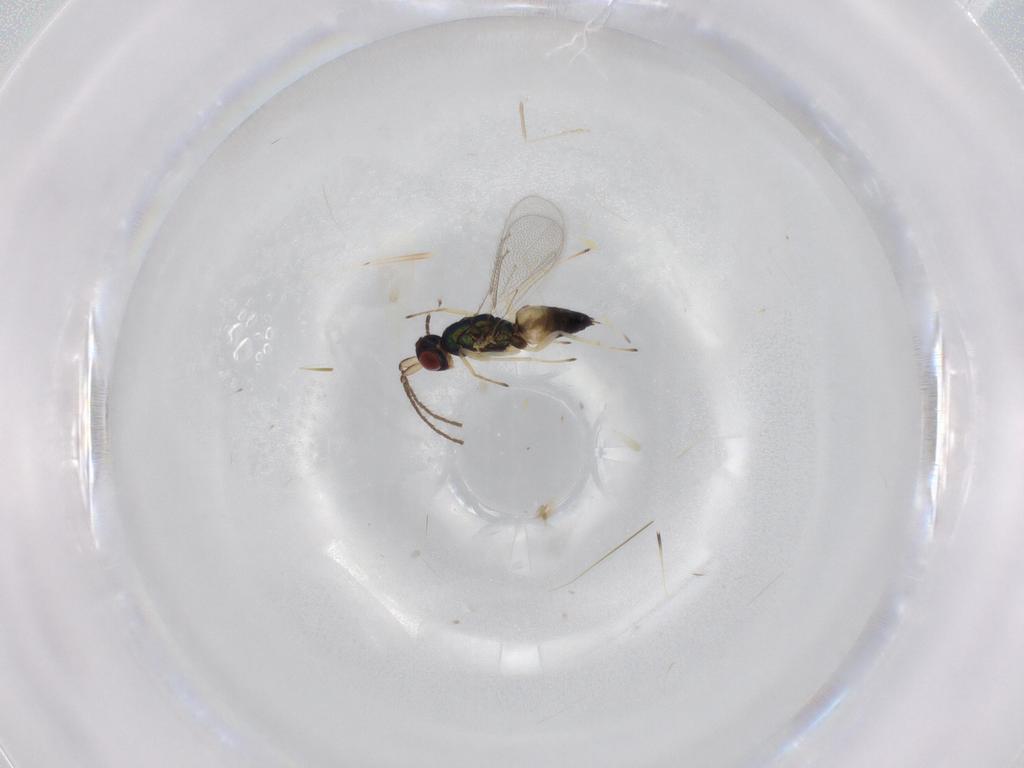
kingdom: Animalia
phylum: Arthropoda
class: Insecta
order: Hymenoptera
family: Eulophidae
